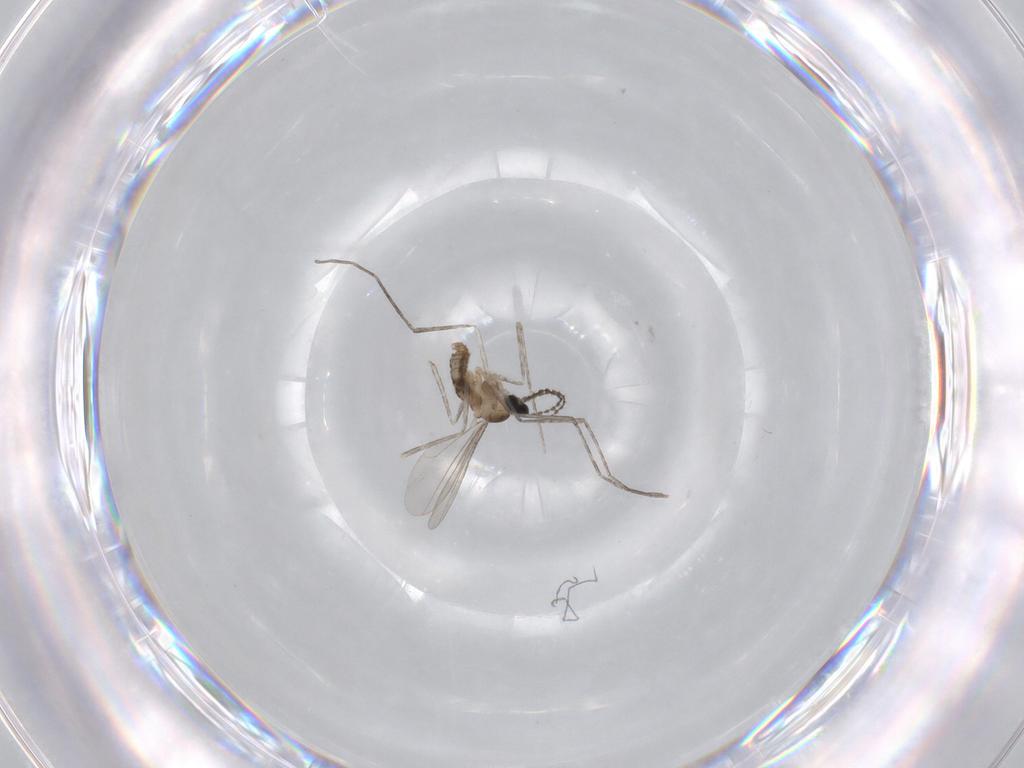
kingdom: Animalia
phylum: Arthropoda
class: Insecta
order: Diptera
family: Cecidomyiidae
